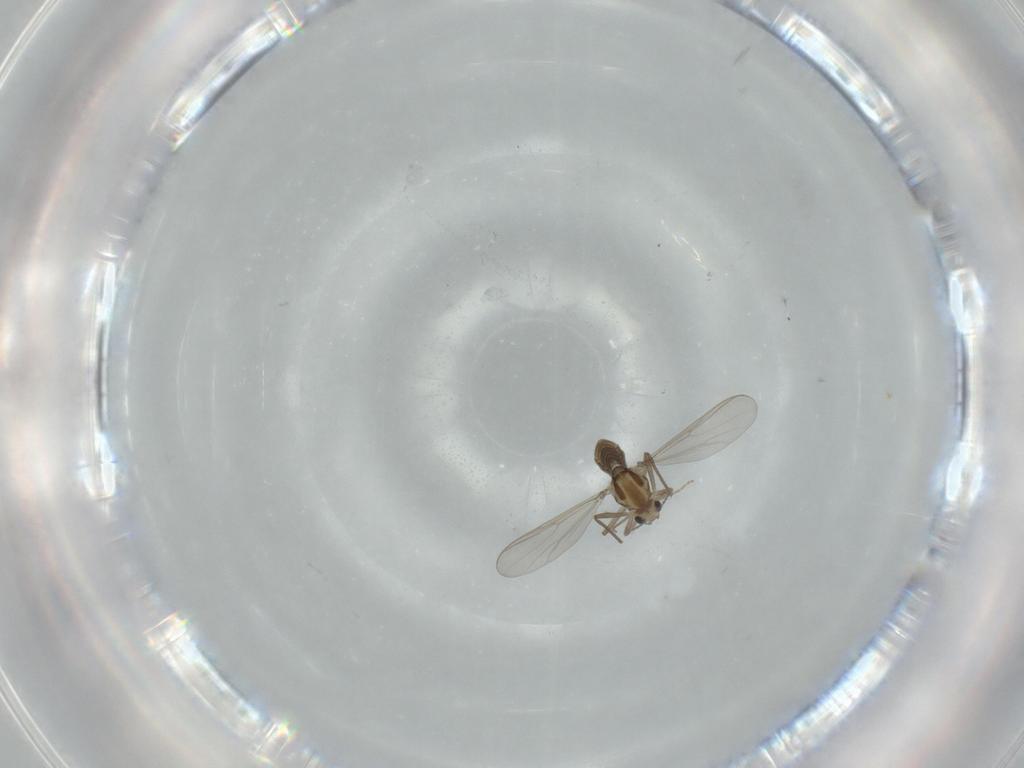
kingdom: Animalia
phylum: Arthropoda
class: Insecta
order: Diptera
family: Chironomidae
